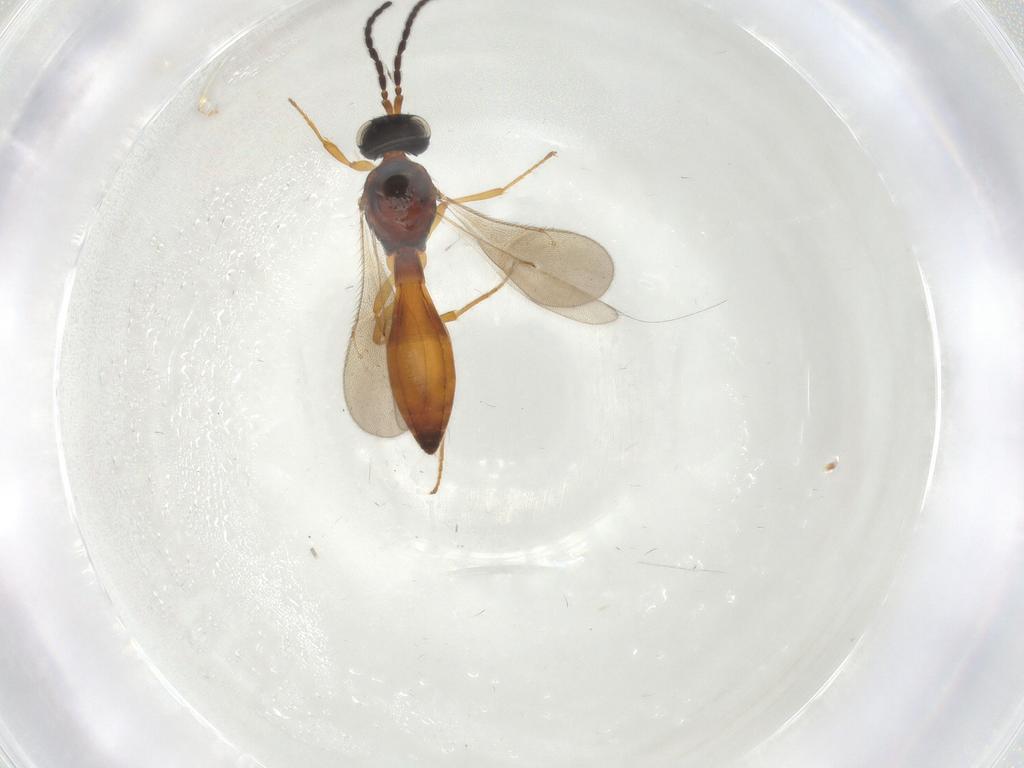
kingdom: Animalia
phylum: Arthropoda
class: Insecta
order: Hymenoptera
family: Scelionidae
